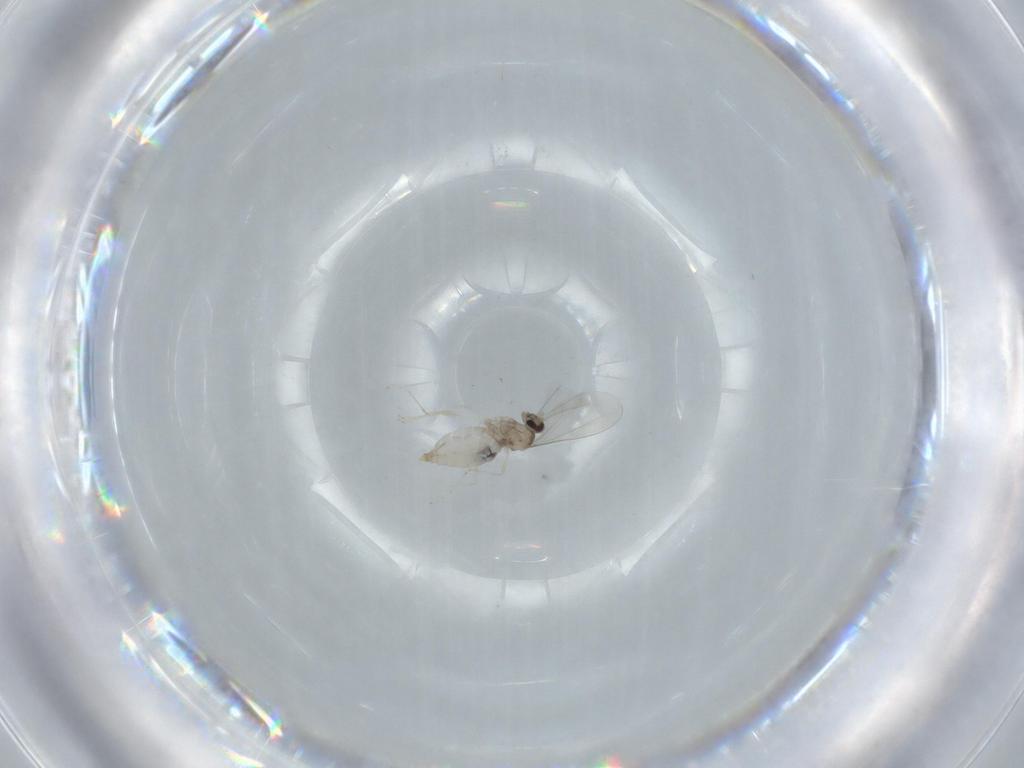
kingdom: Animalia
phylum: Arthropoda
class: Insecta
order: Diptera
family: Cecidomyiidae
